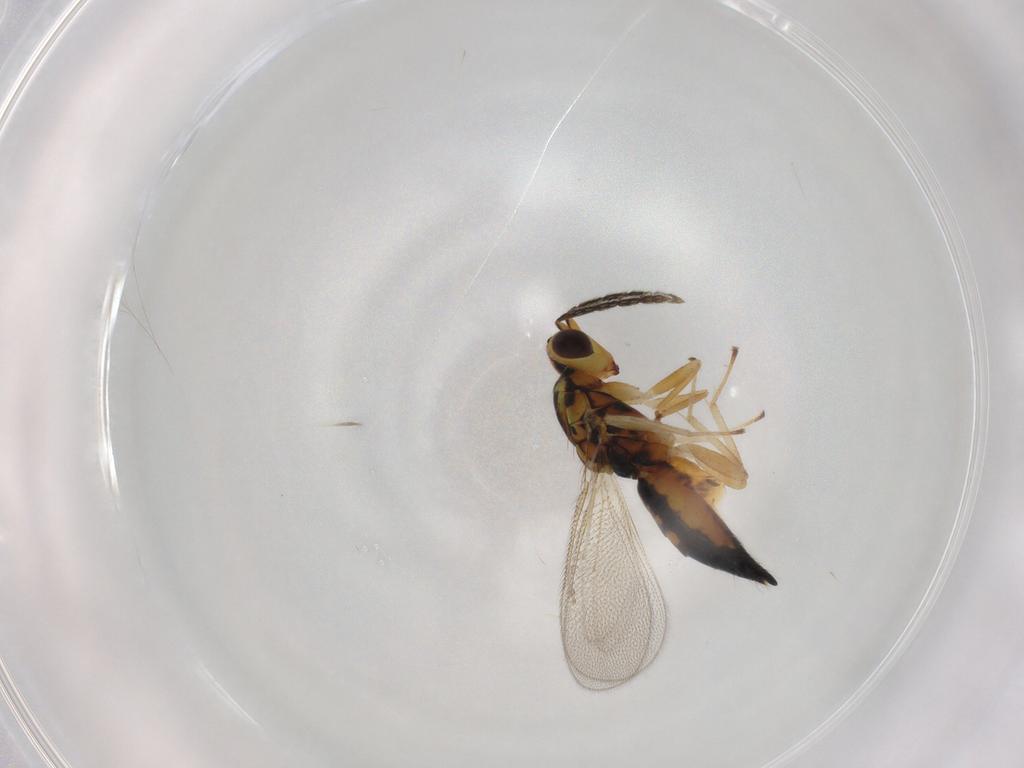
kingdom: Animalia
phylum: Arthropoda
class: Insecta
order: Hymenoptera
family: Eulophidae
